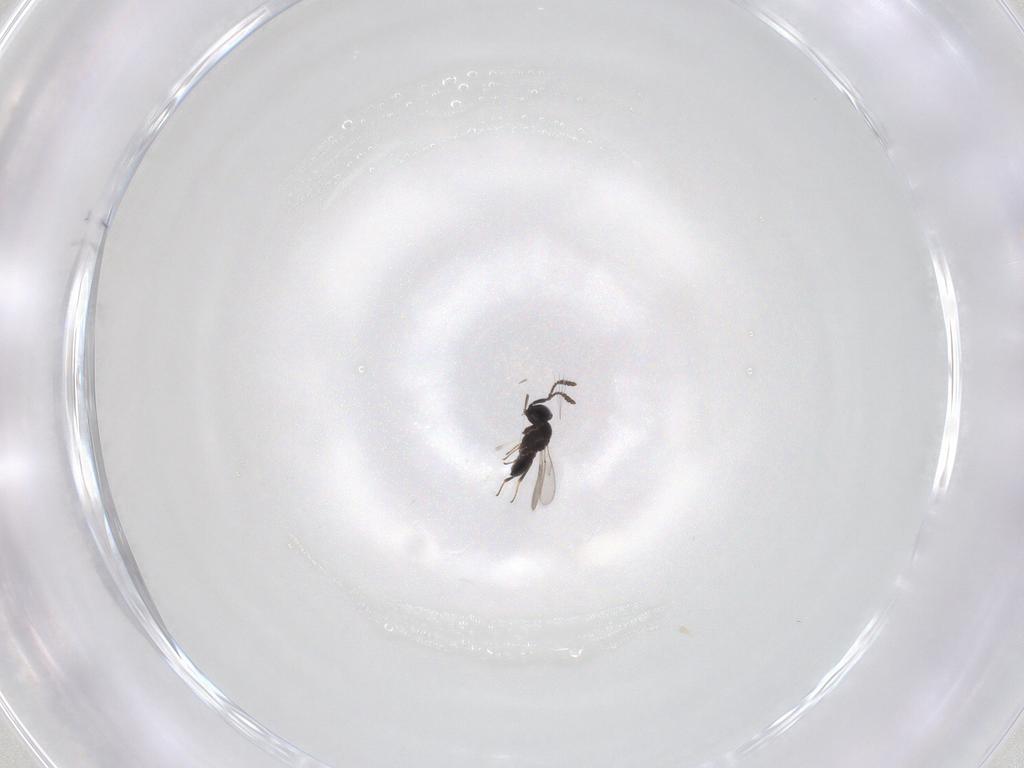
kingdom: Animalia
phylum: Arthropoda
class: Insecta
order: Hymenoptera
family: Scelionidae
